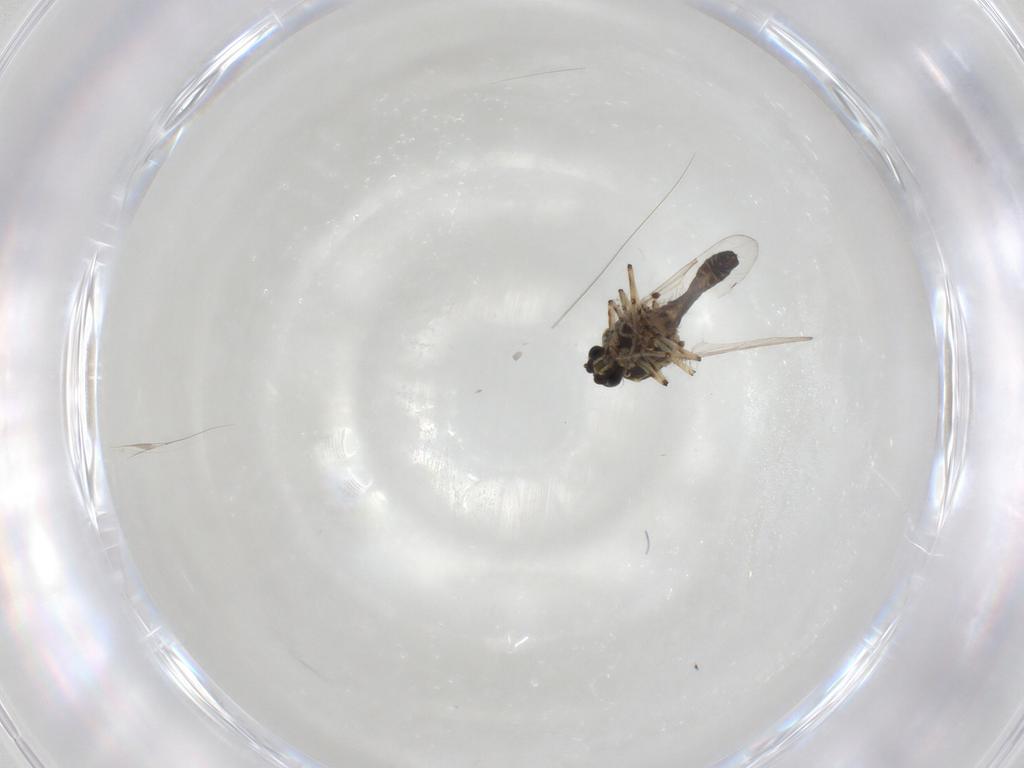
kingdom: Animalia
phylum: Arthropoda
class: Insecta
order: Diptera
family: Ceratopogonidae
